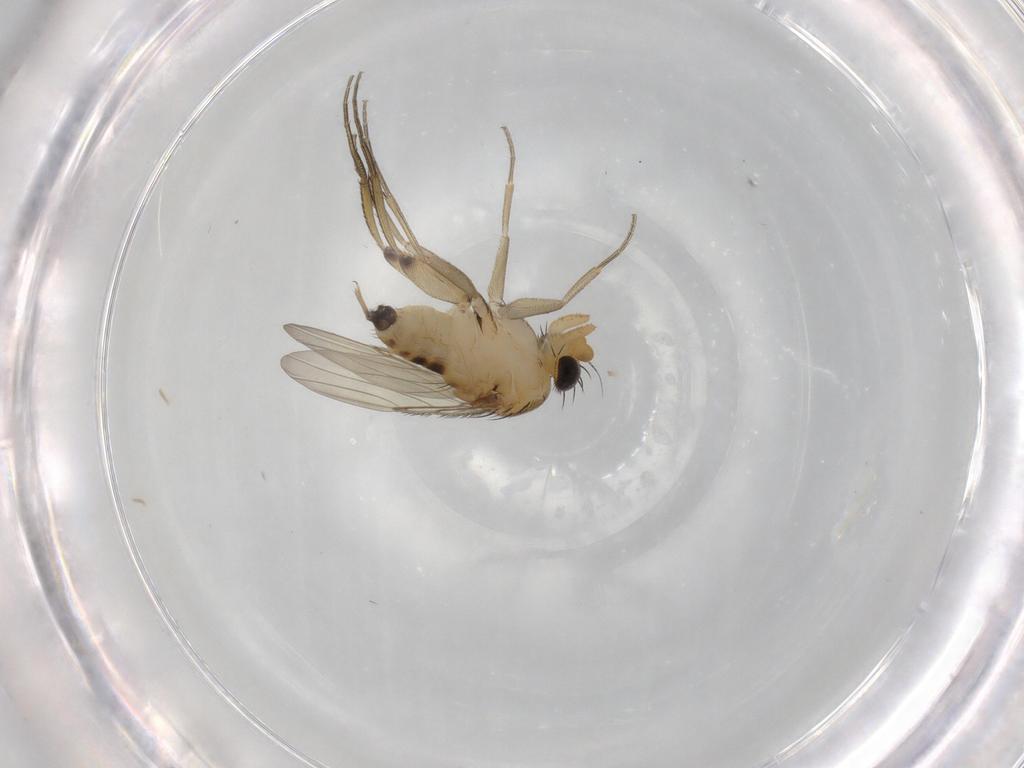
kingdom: Animalia
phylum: Arthropoda
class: Insecta
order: Diptera
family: Phoridae
